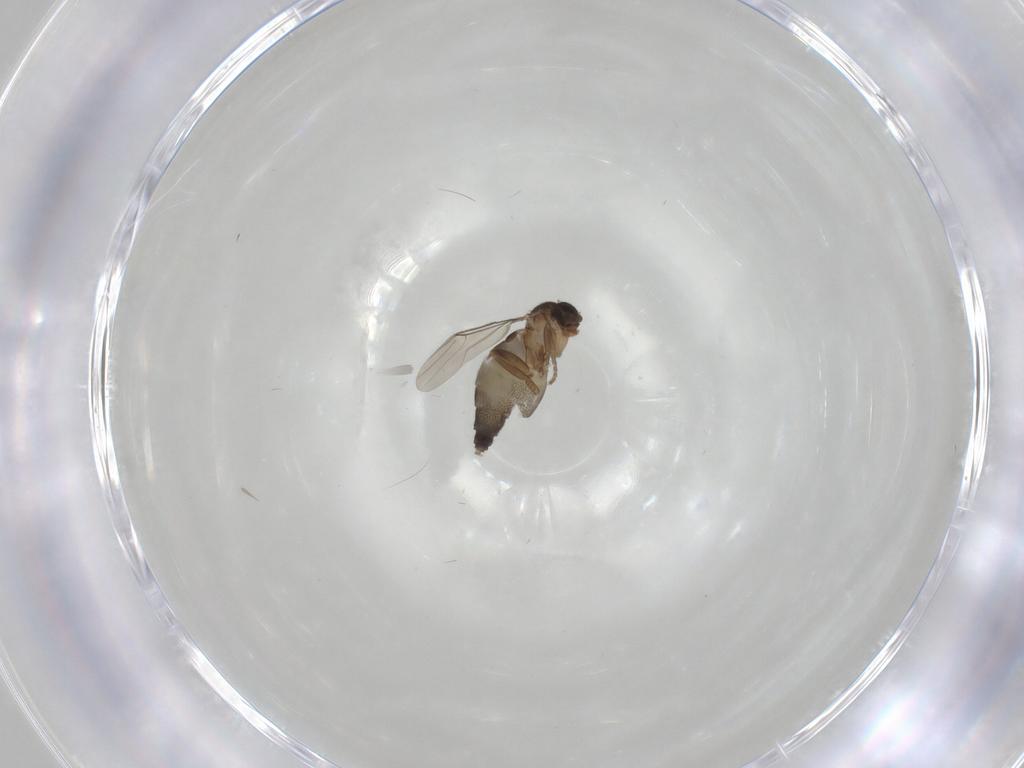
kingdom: Animalia
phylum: Arthropoda
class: Insecta
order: Diptera
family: Phoridae
